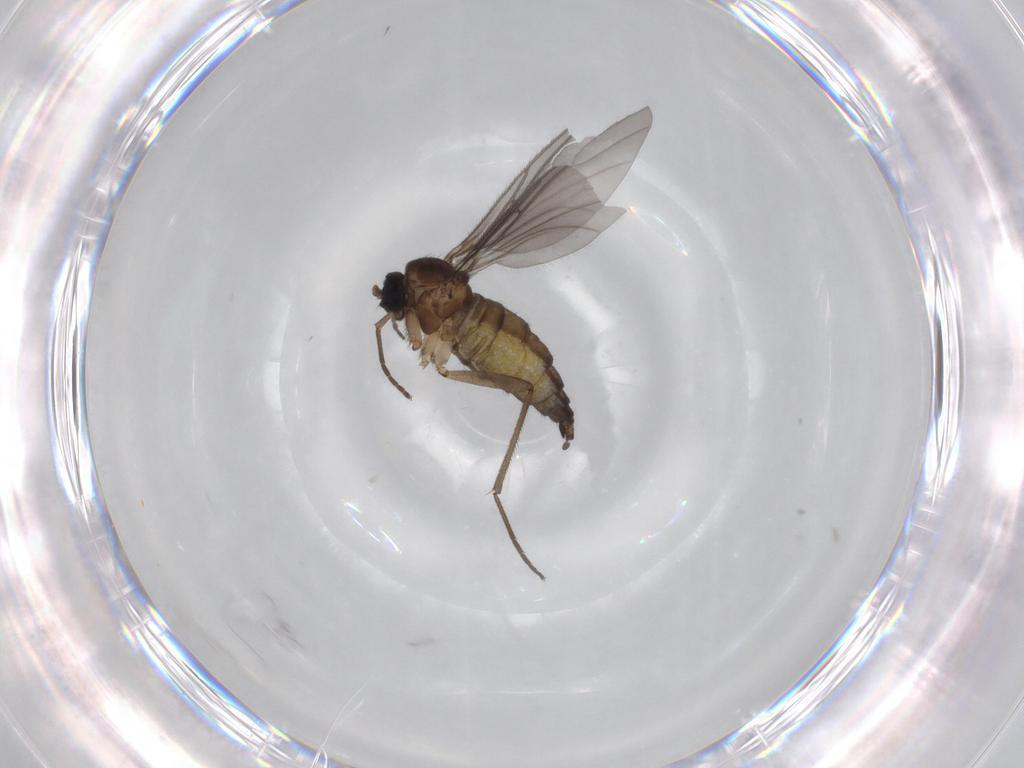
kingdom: Animalia
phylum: Arthropoda
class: Insecta
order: Diptera
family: Sciaridae
